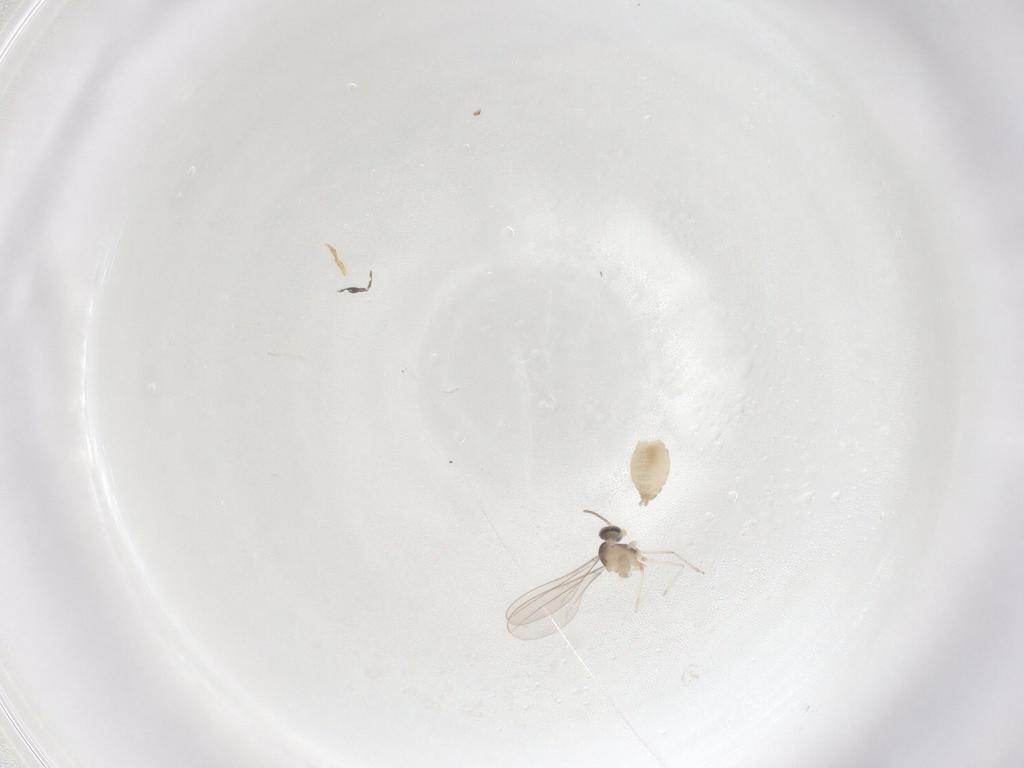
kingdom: Animalia
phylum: Arthropoda
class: Insecta
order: Diptera
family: Cecidomyiidae
